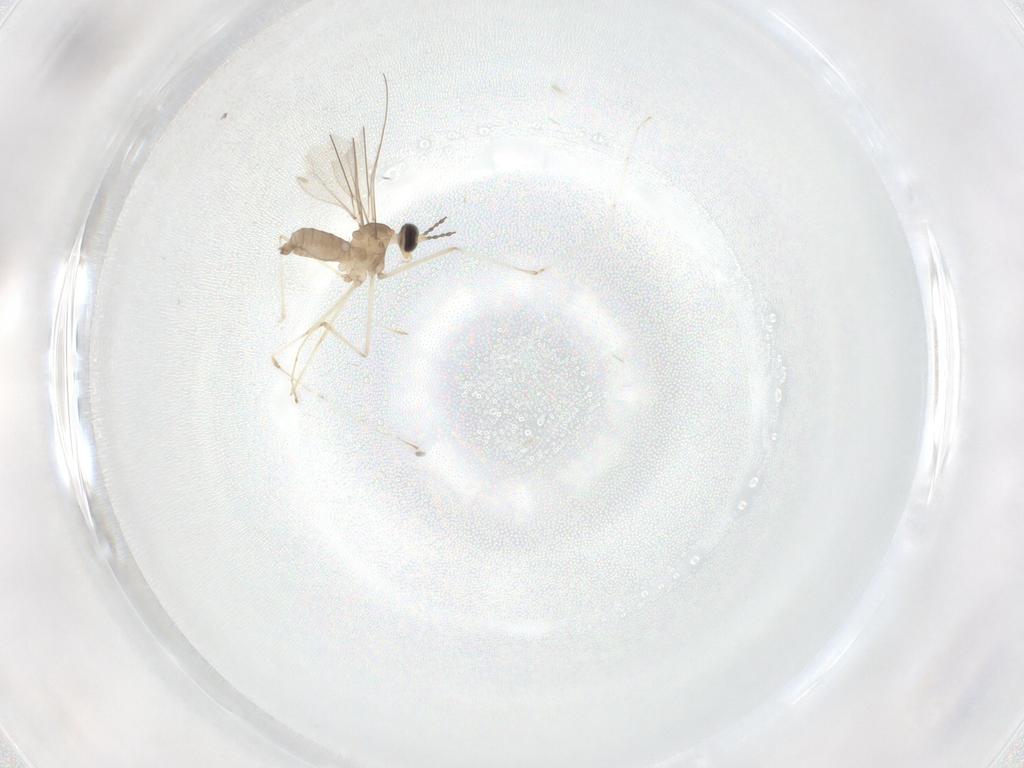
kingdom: Animalia
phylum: Arthropoda
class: Insecta
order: Diptera
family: Cecidomyiidae
